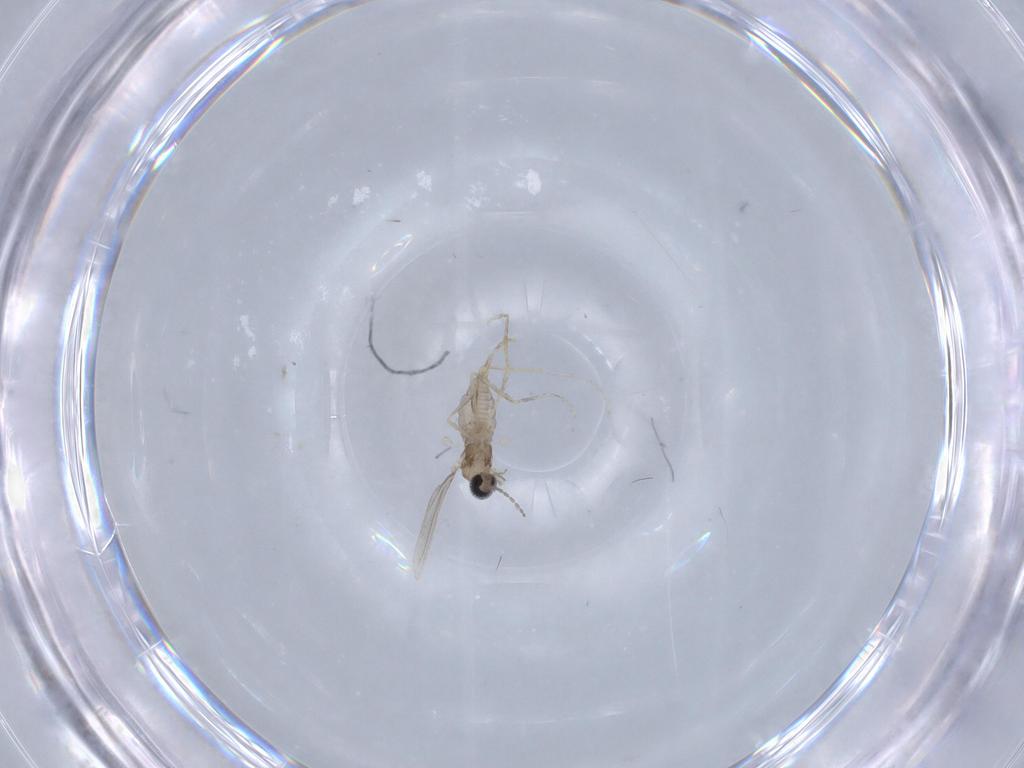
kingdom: Animalia
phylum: Arthropoda
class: Insecta
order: Diptera
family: Cecidomyiidae
